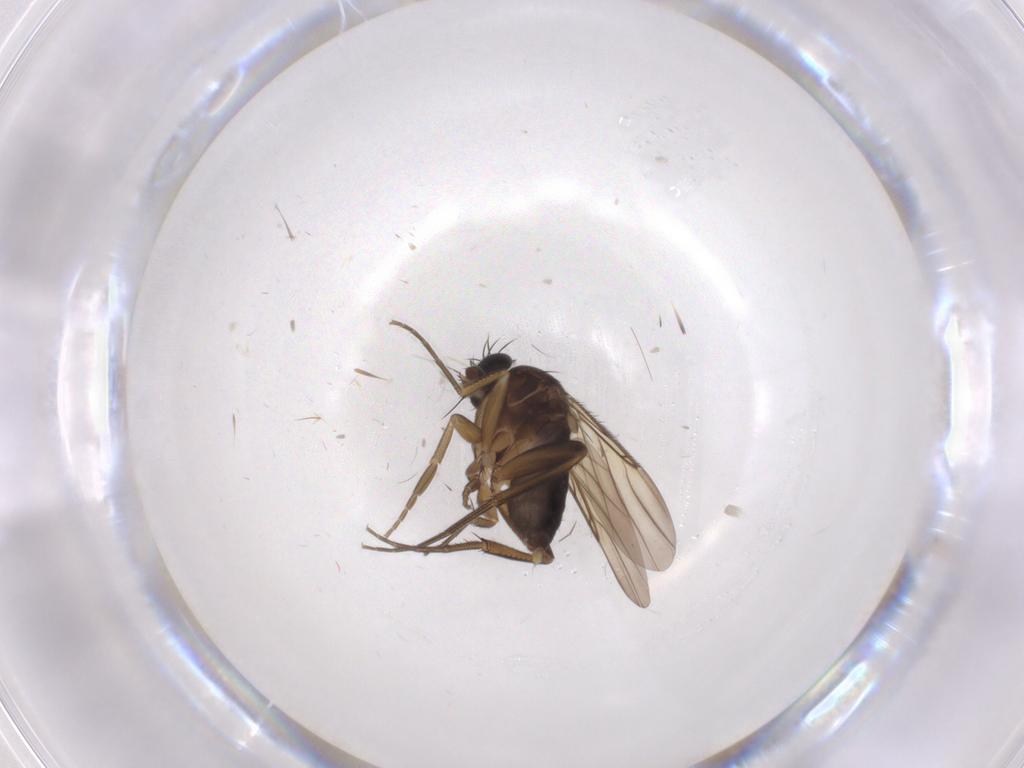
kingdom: Animalia
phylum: Arthropoda
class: Insecta
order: Diptera
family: Phoridae
